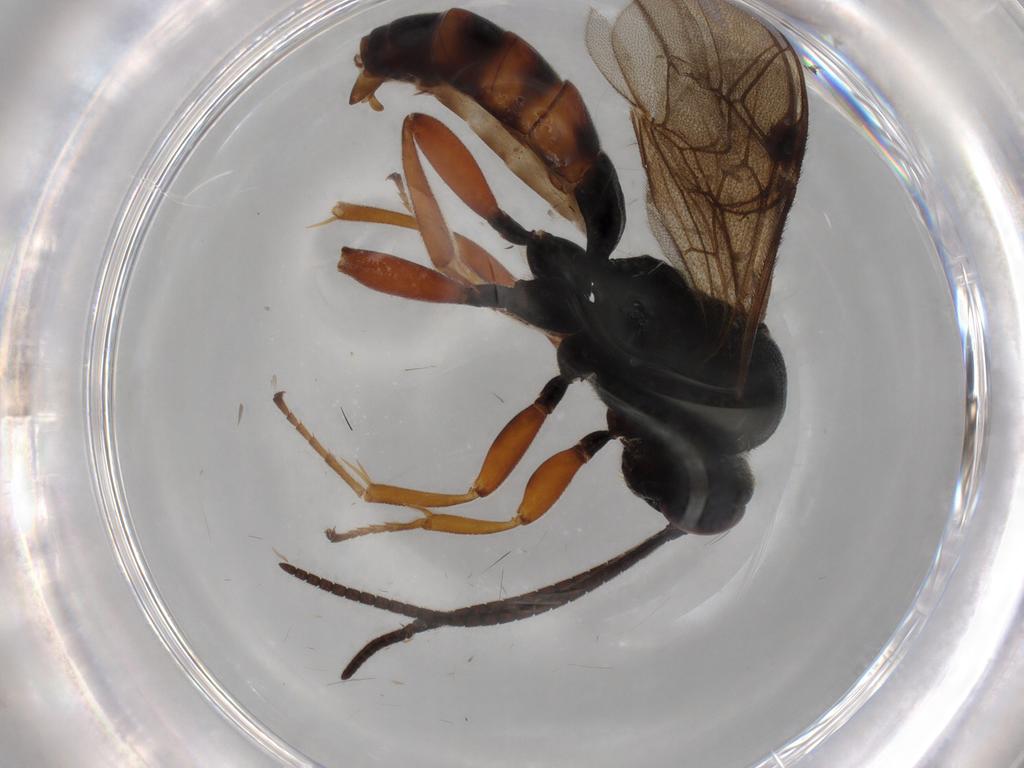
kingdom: Animalia
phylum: Arthropoda
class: Insecta
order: Hymenoptera
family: Ichneumonidae
